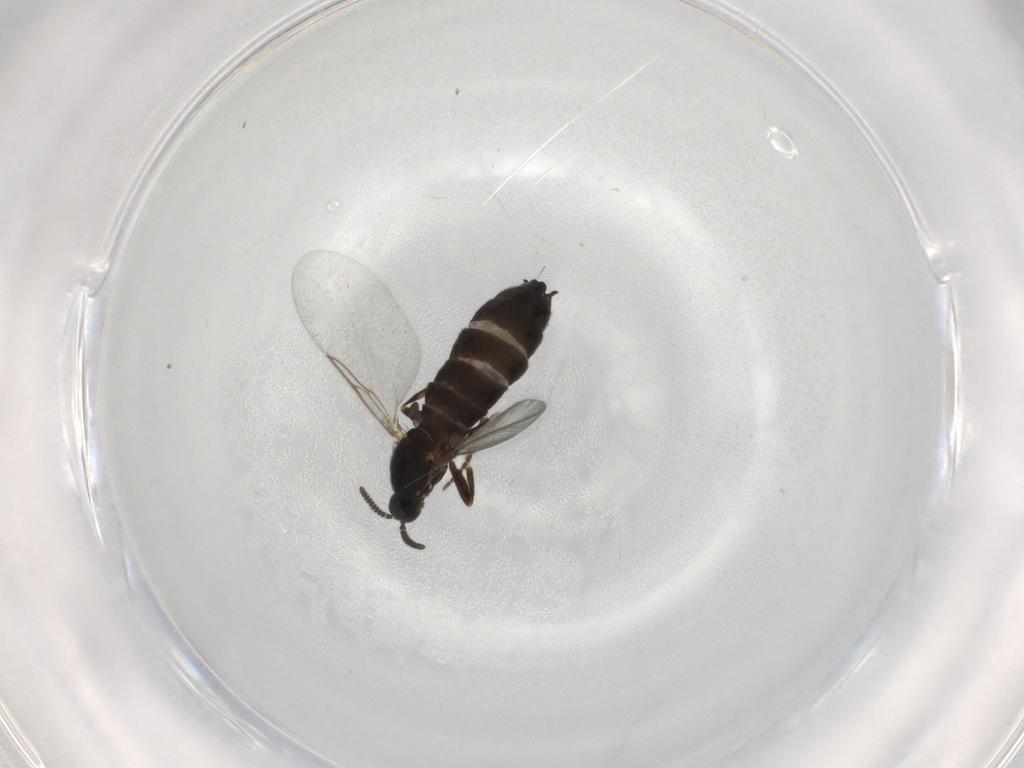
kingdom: Animalia
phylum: Arthropoda
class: Insecta
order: Diptera
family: Scatopsidae
